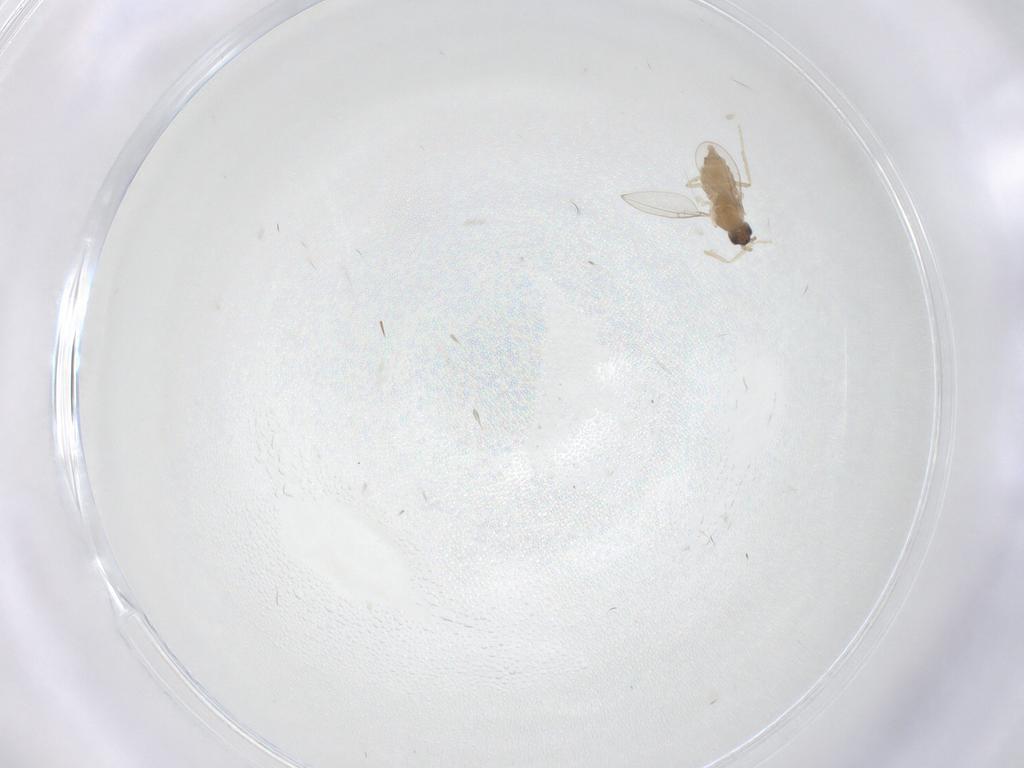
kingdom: Animalia
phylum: Arthropoda
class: Insecta
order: Diptera
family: Cecidomyiidae
